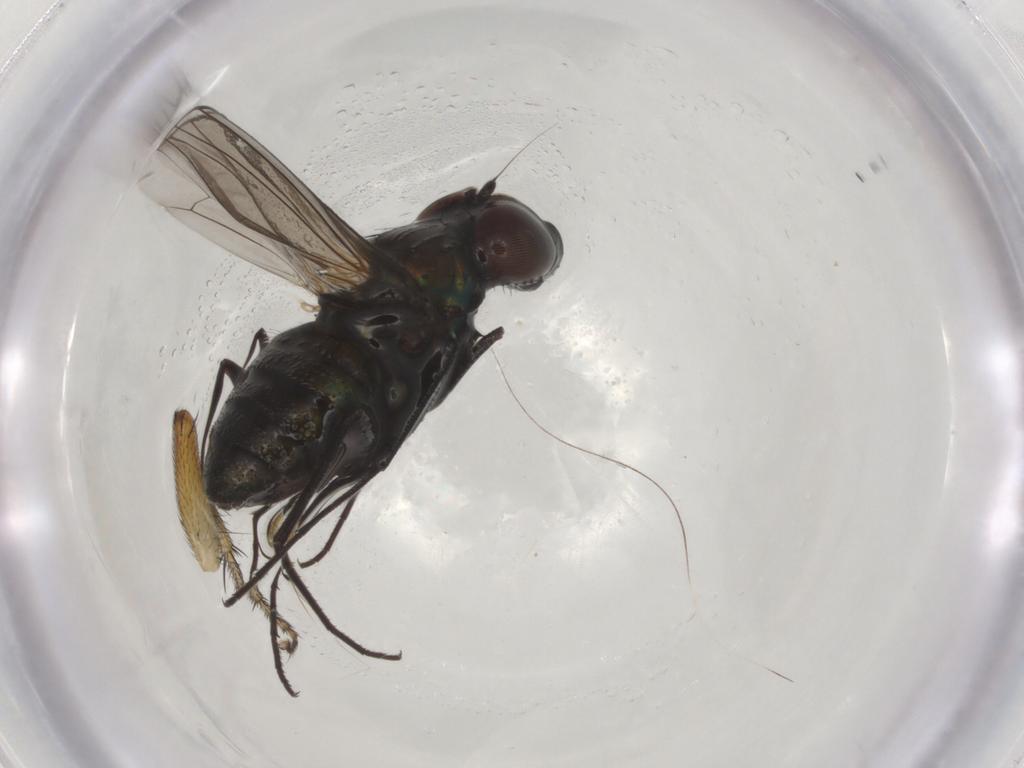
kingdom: Animalia
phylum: Arthropoda
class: Insecta
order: Diptera
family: Dolichopodidae
